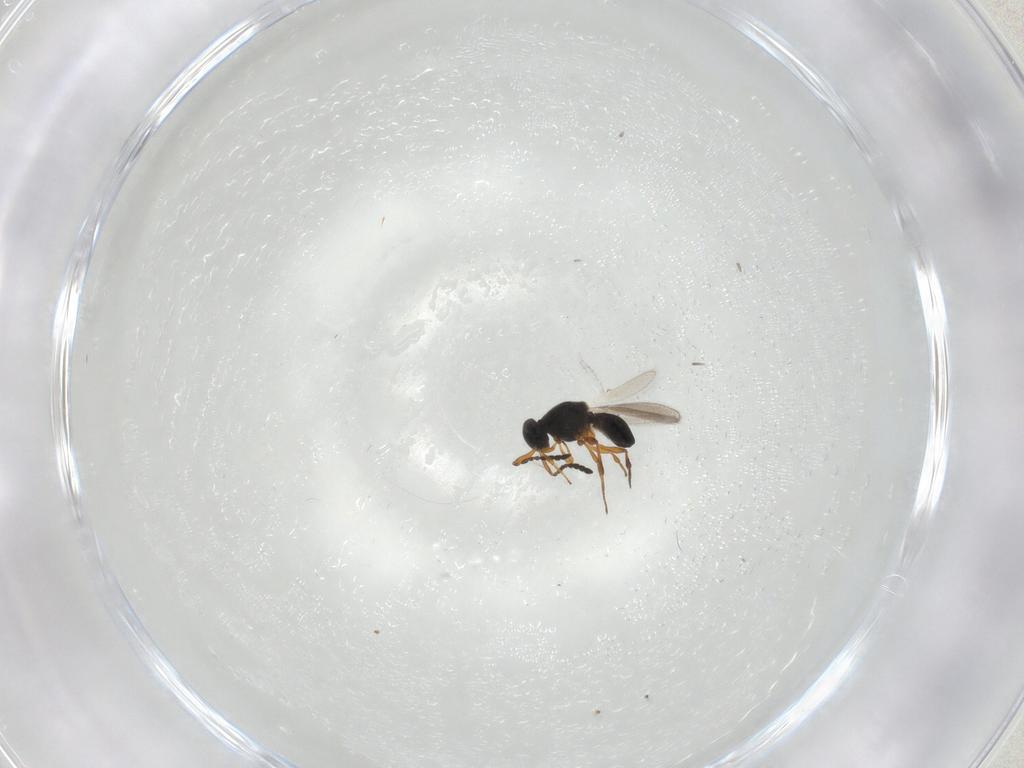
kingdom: Animalia
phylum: Arthropoda
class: Insecta
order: Hymenoptera
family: Platygastridae
